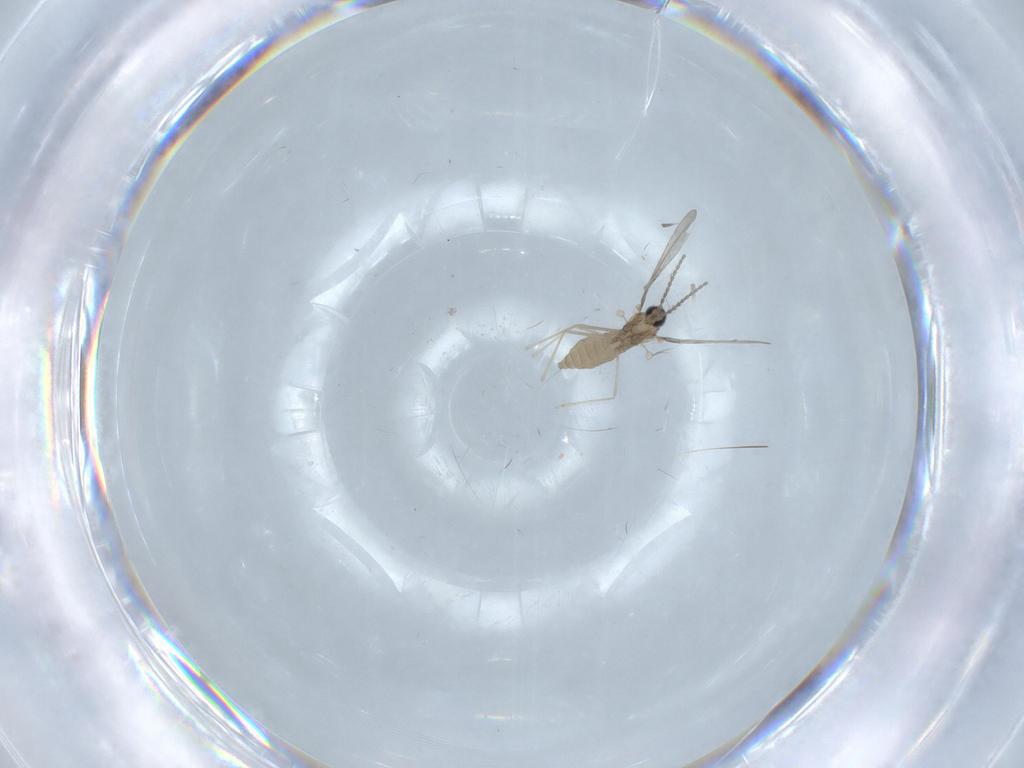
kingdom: Animalia
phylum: Arthropoda
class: Insecta
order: Diptera
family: Cecidomyiidae
